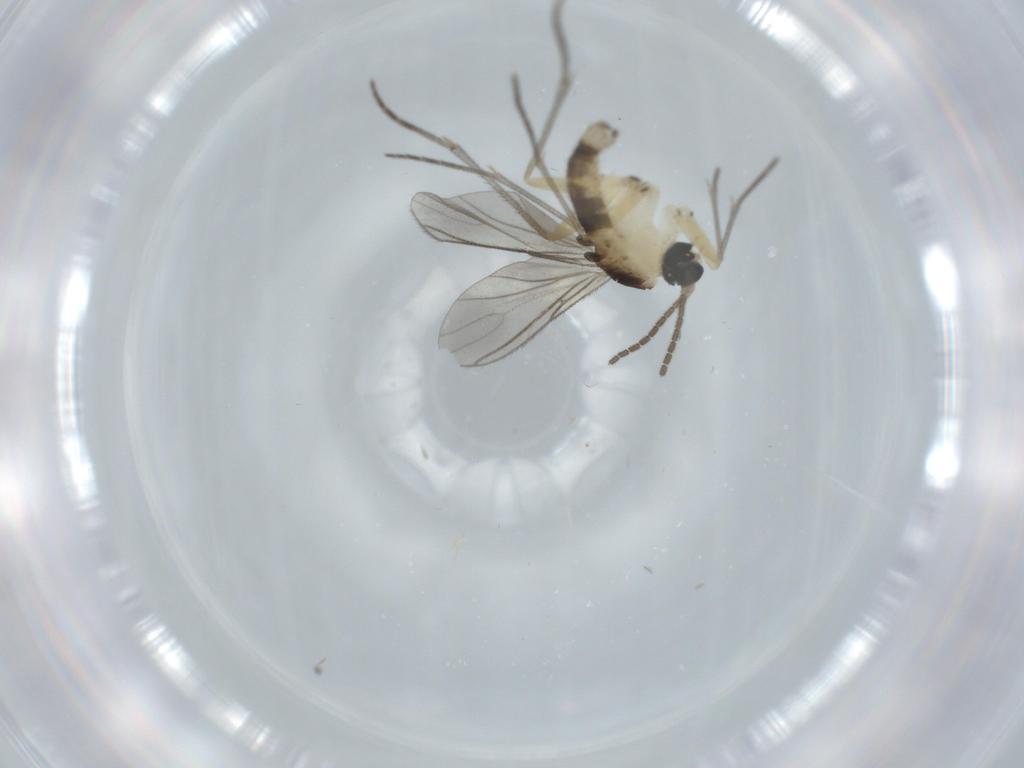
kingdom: Animalia
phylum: Arthropoda
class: Insecta
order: Diptera
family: Sciaridae
